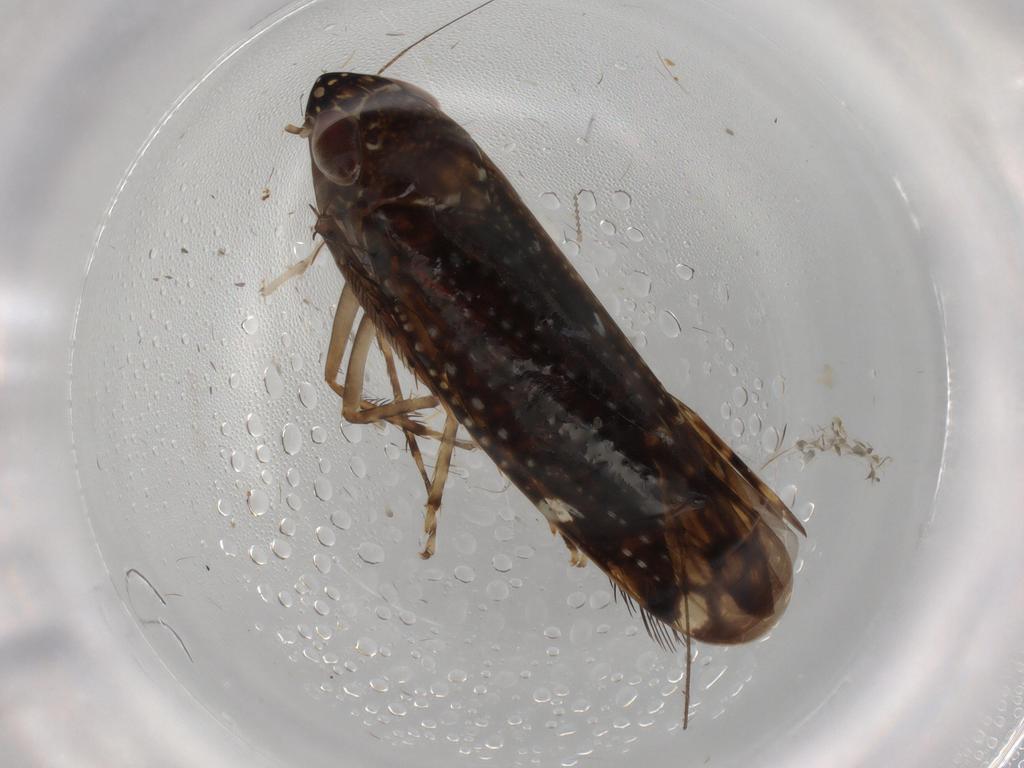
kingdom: Animalia
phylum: Arthropoda
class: Insecta
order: Hemiptera
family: Cicadellidae
